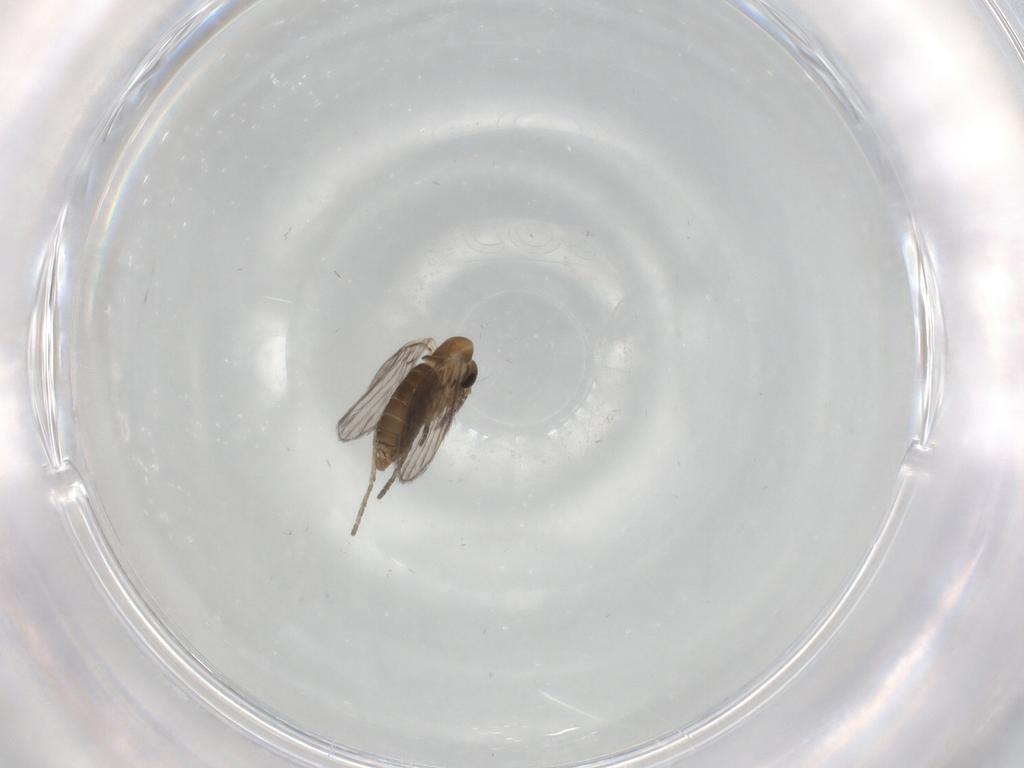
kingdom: Animalia
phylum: Arthropoda
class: Insecta
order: Diptera
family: Psychodidae
